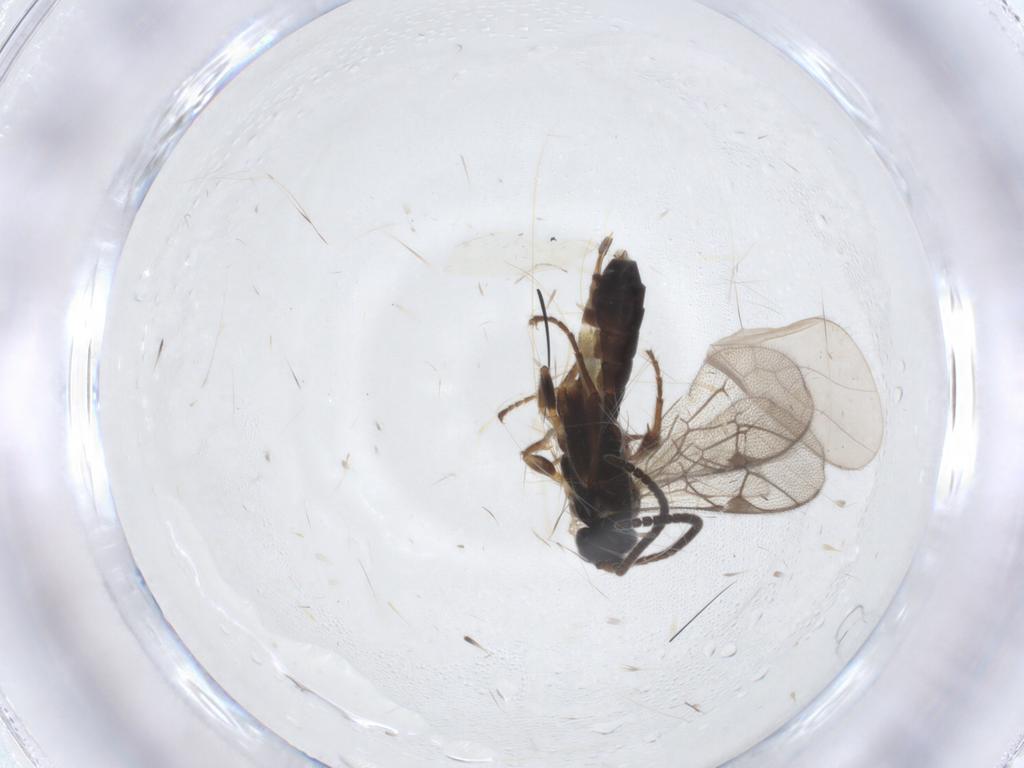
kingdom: Animalia
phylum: Arthropoda
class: Insecta
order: Hymenoptera
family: Ichneumonidae
